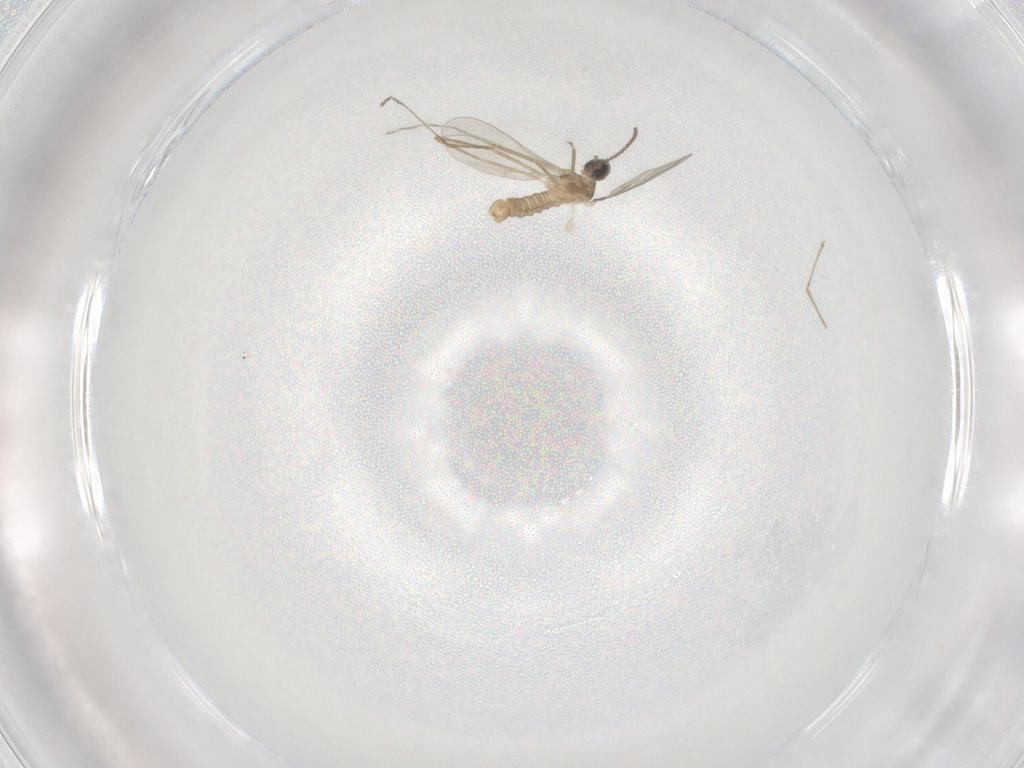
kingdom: Animalia
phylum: Arthropoda
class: Insecta
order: Diptera
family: Cecidomyiidae
